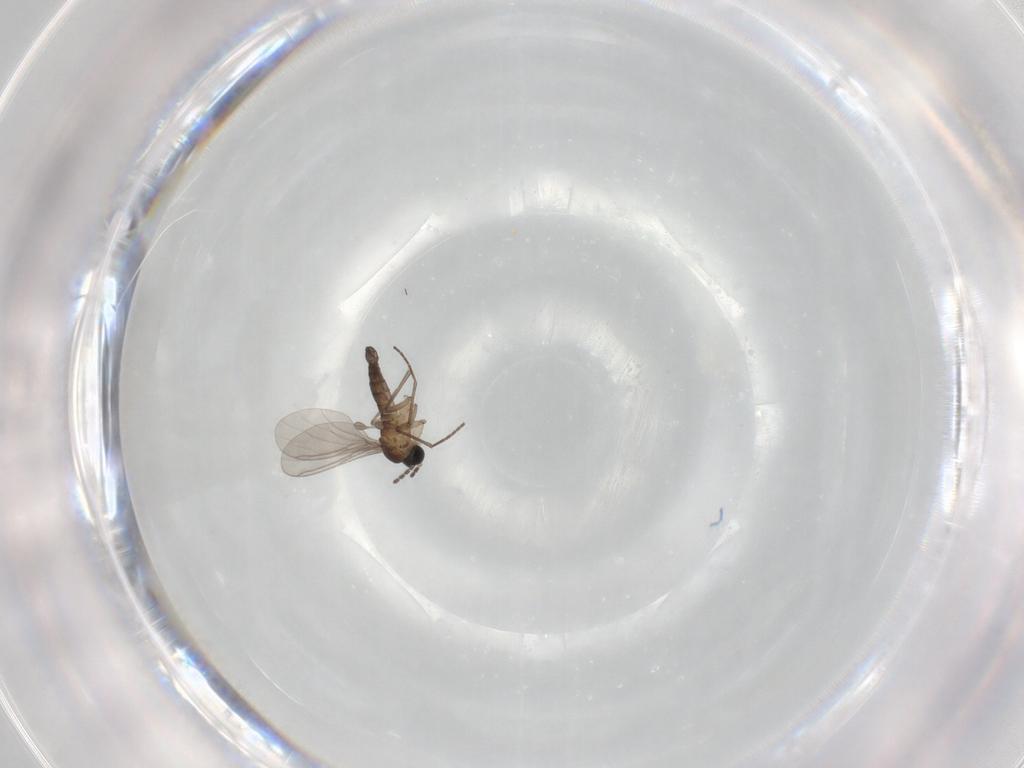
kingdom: Animalia
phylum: Arthropoda
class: Insecta
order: Diptera
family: Sciaridae
